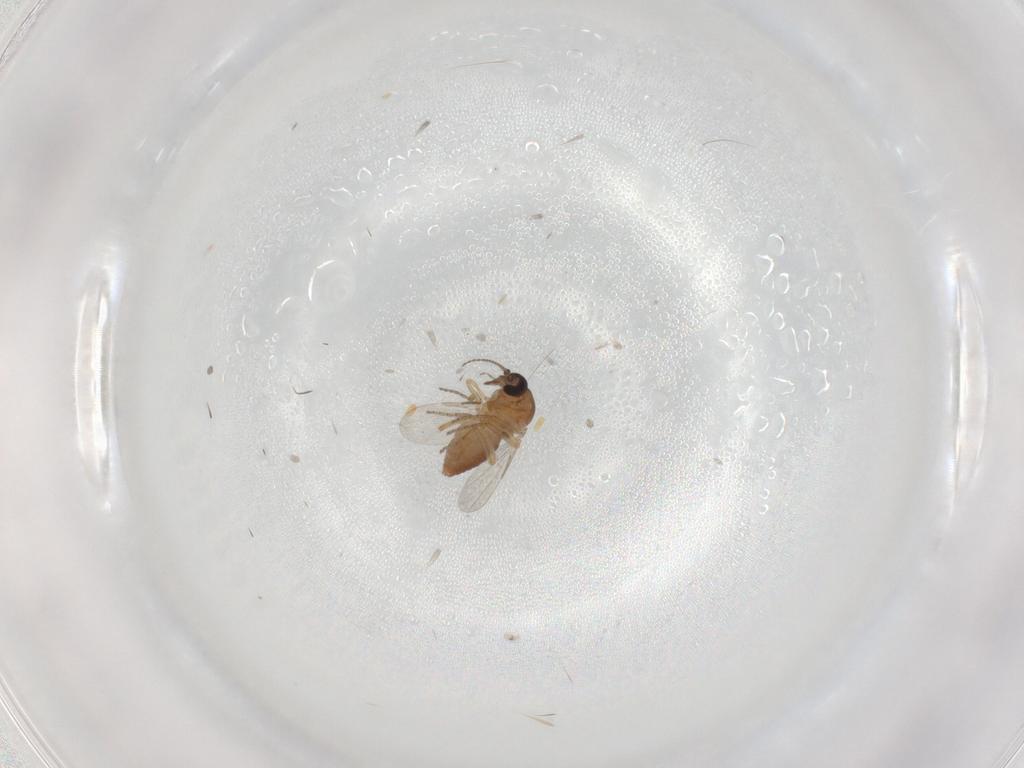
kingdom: Animalia
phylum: Arthropoda
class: Insecta
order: Diptera
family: Ceratopogonidae
